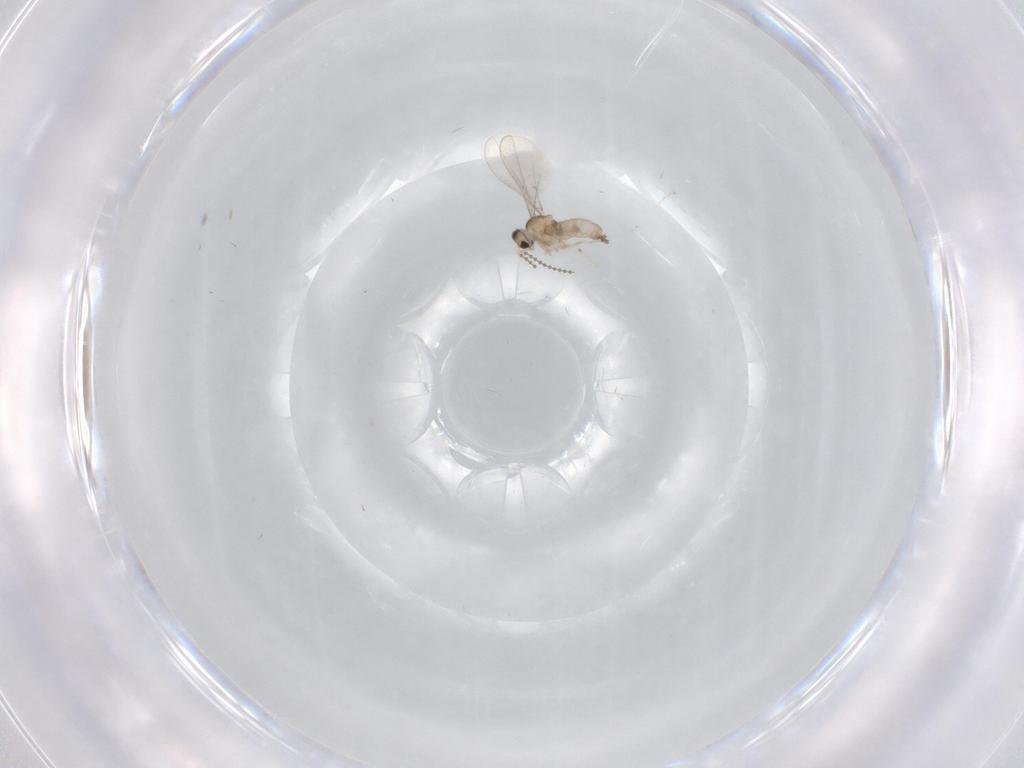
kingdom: Animalia
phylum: Arthropoda
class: Insecta
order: Diptera
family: Cecidomyiidae
